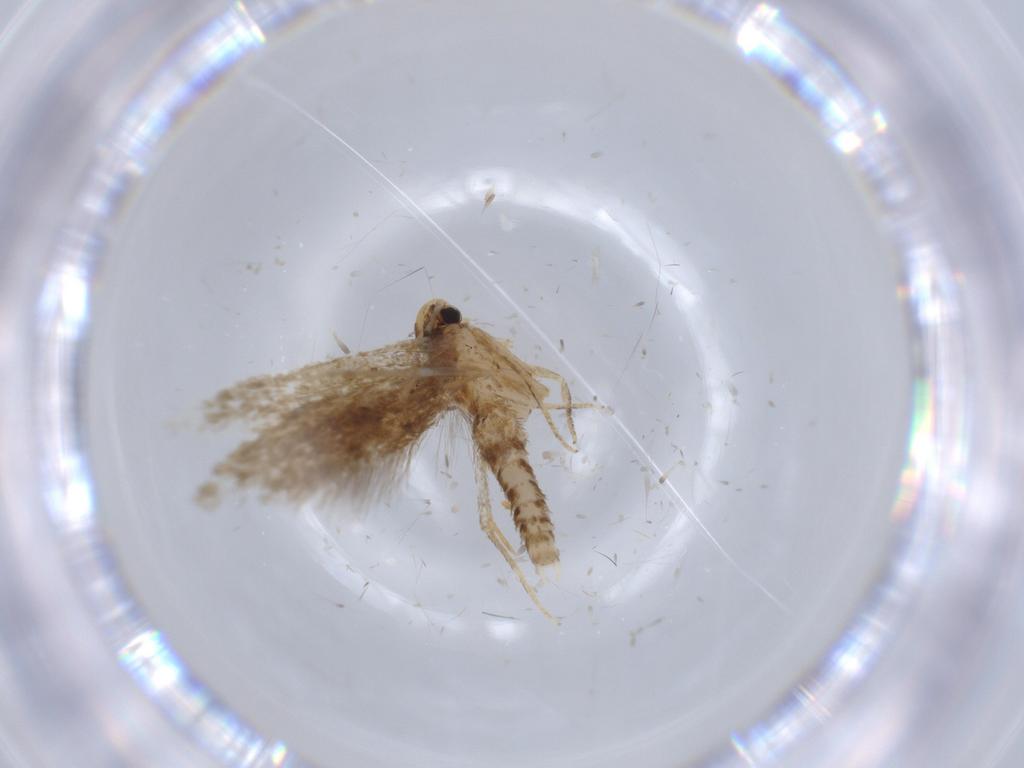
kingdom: Animalia
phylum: Arthropoda
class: Insecta
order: Lepidoptera
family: Tineidae
